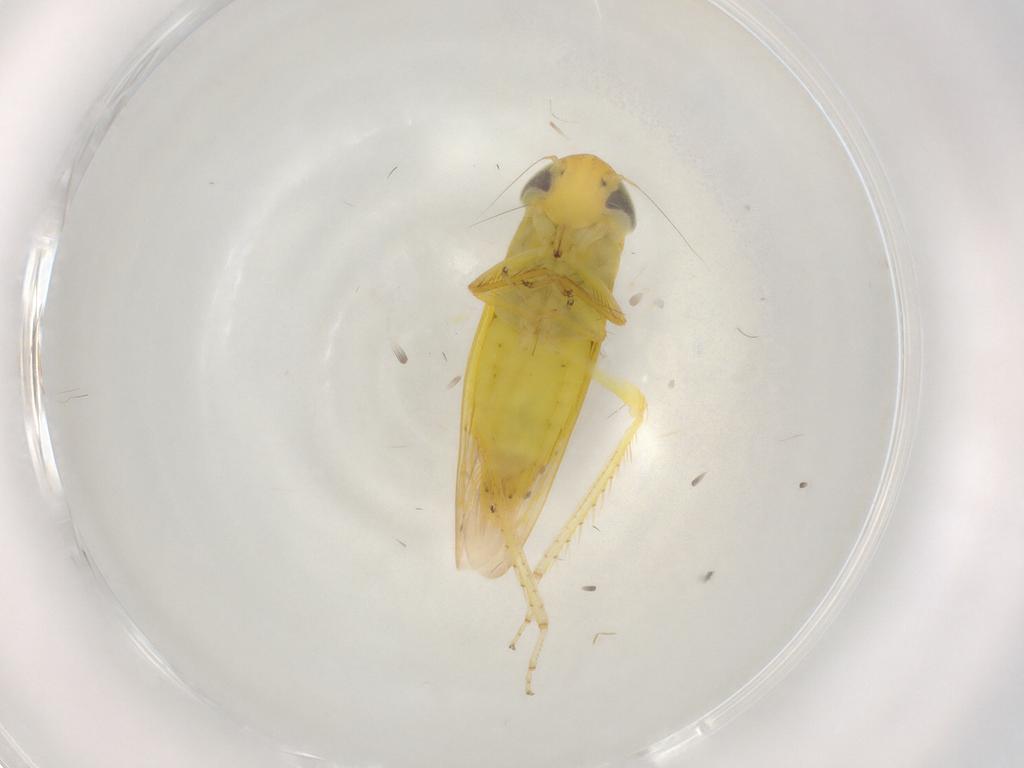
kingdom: Animalia
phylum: Arthropoda
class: Insecta
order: Hemiptera
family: Cicadellidae
